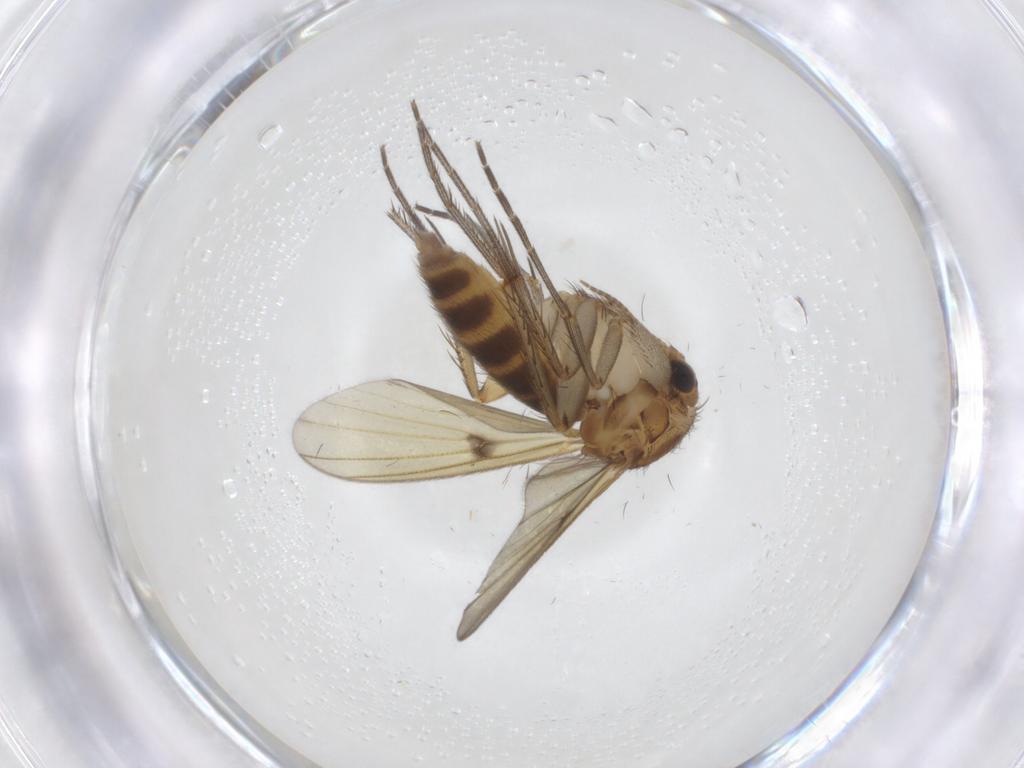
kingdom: Animalia
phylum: Arthropoda
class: Insecta
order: Diptera
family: Mycetophilidae
